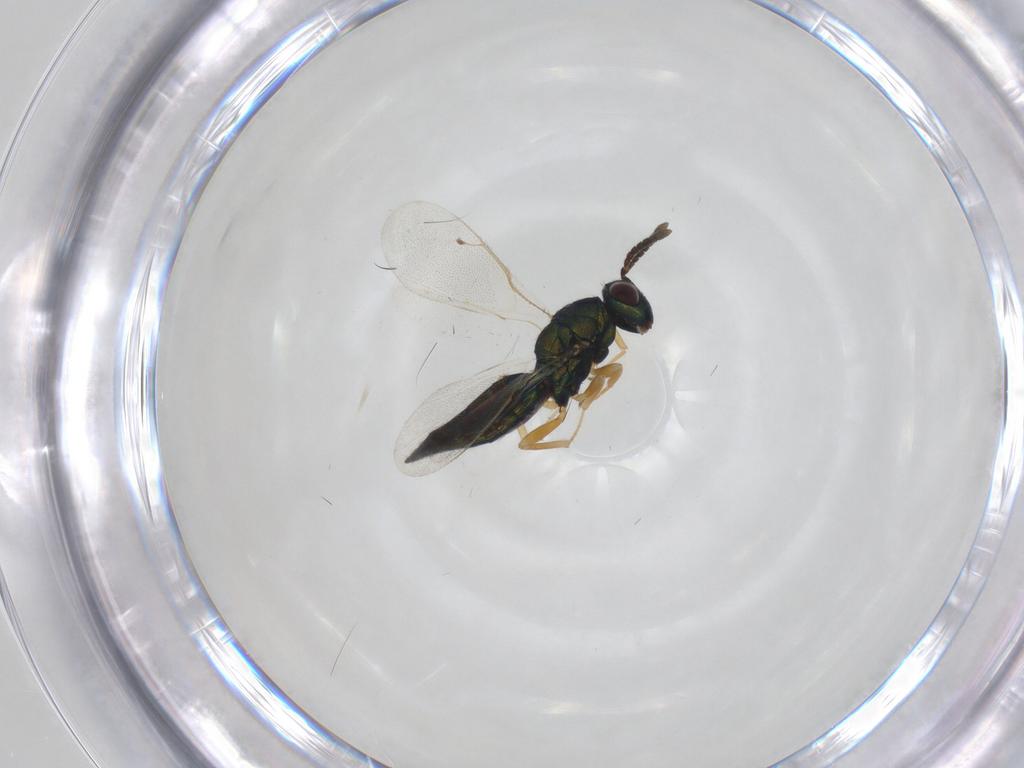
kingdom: Animalia
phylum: Arthropoda
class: Insecta
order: Hymenoptera
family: Pteromalidae
